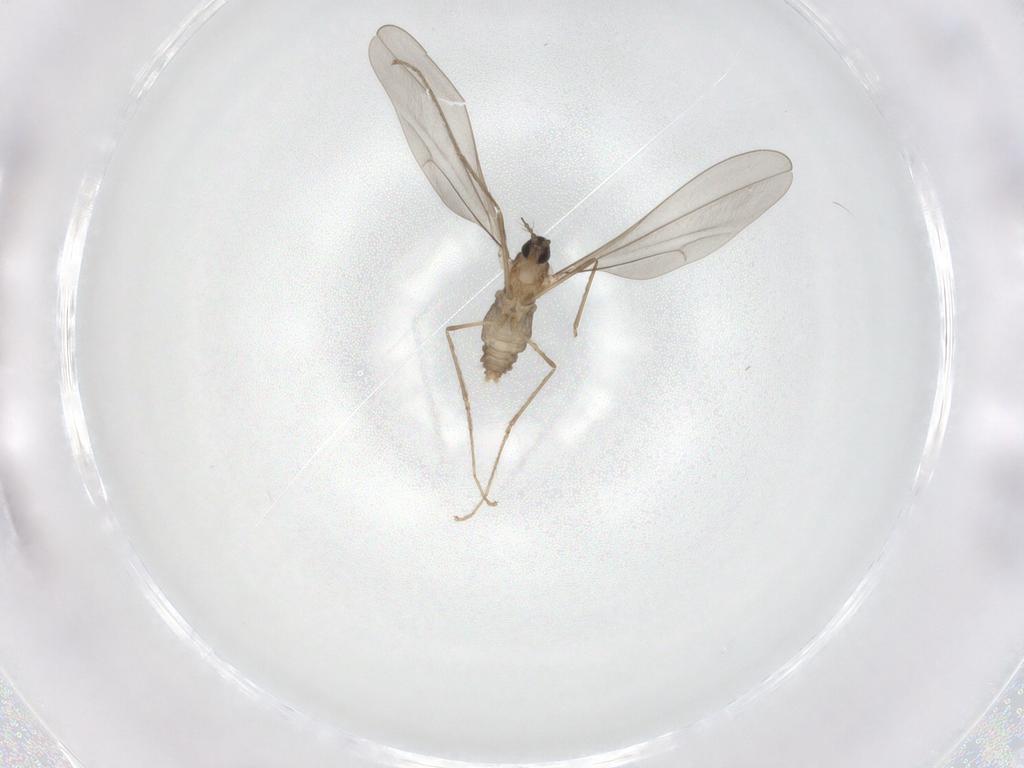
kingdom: Animalia
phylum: Arthropoda
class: Insecta
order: Diptera
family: Cecidomyiidae
